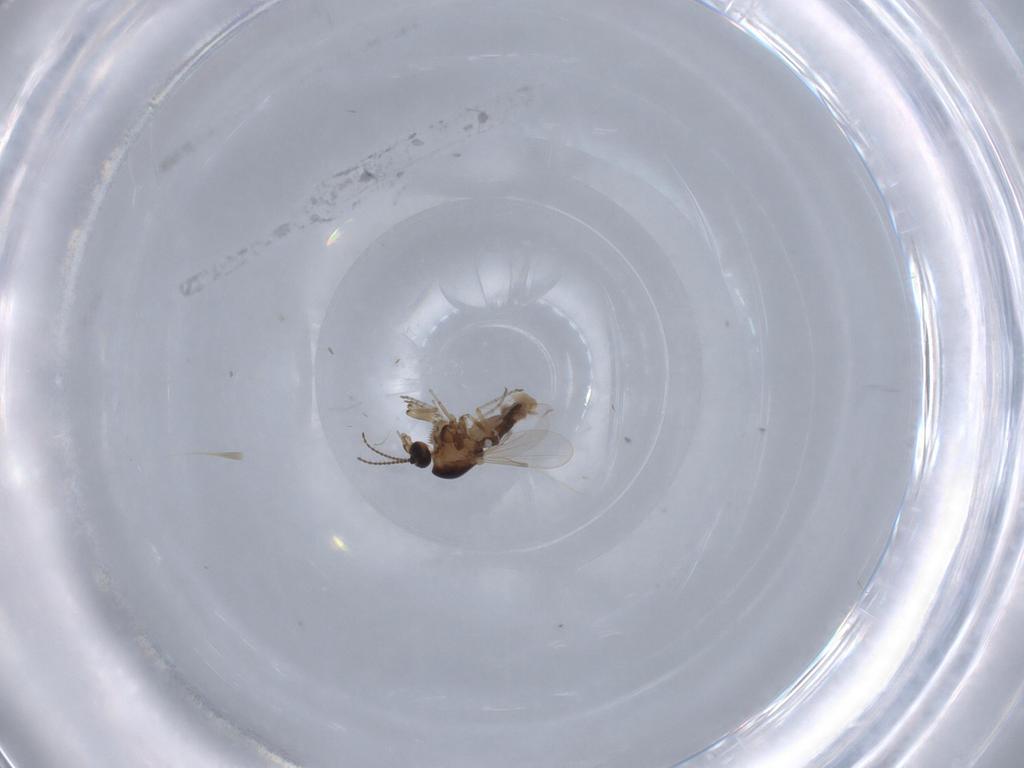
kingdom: Animalia
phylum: Arthropoda
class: Insecta
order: Diptera
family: Ceratopogonidae
